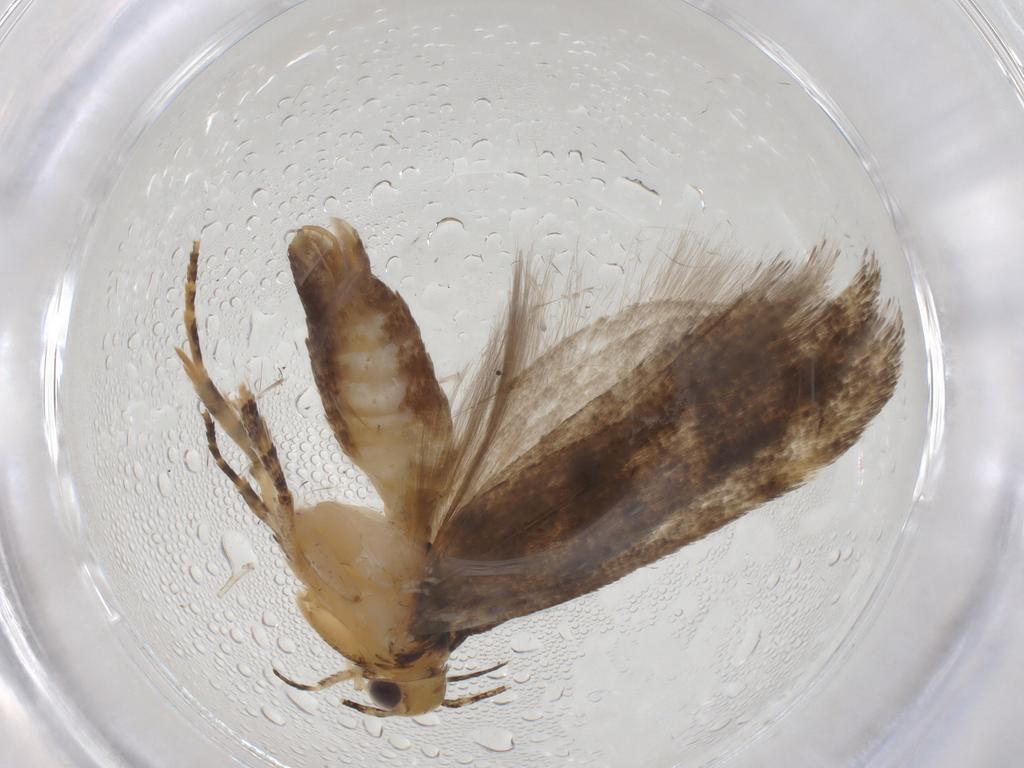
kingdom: Animalia
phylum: Arthropoda
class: Insecta
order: Lepidoptera
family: Gelechiidae
